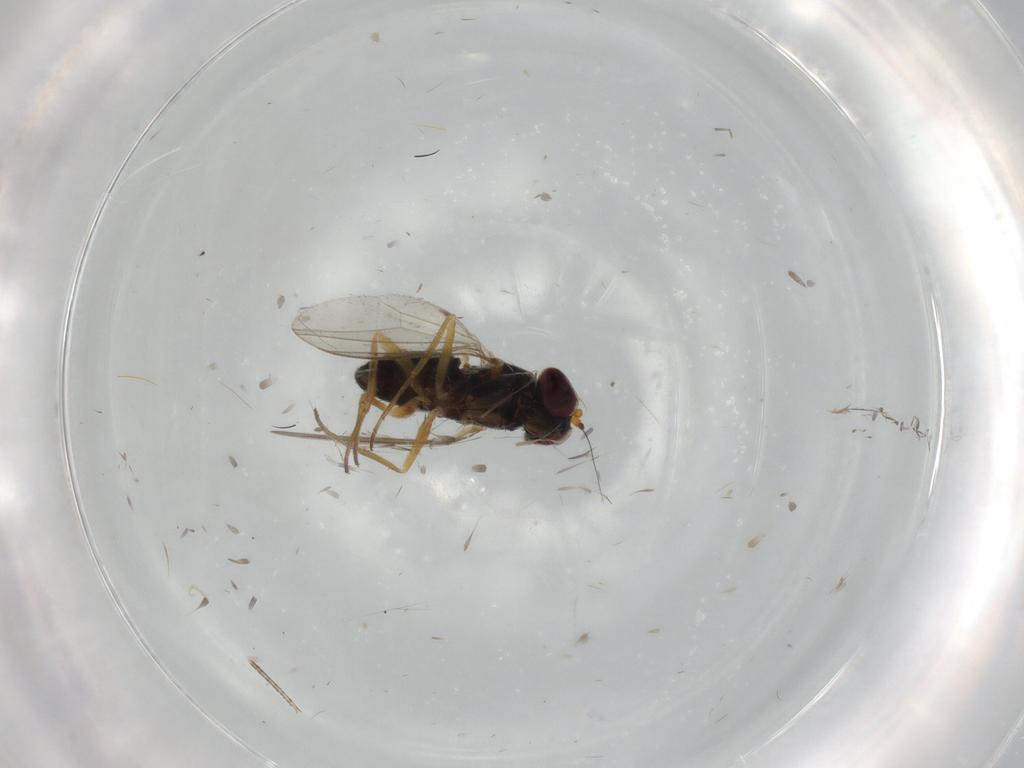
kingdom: Animalia
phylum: Arthropoda
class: Insecta
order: Diptera
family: Dolichopodidae
